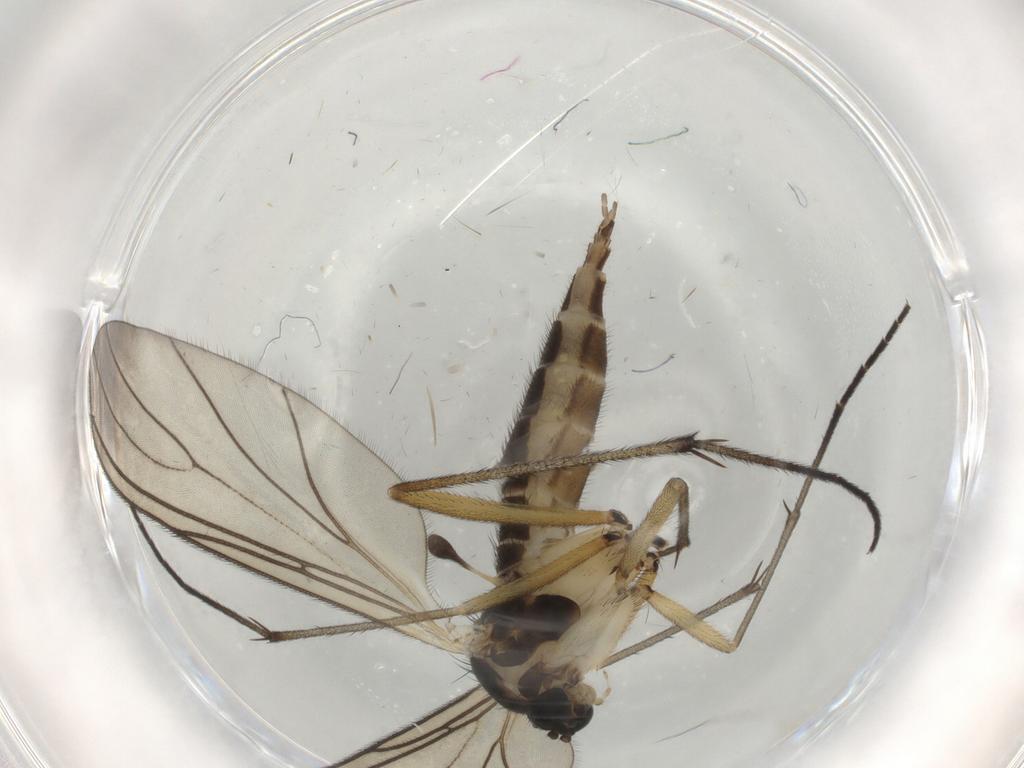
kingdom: Animalia
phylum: Arthropoda
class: Insecta
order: Diptera
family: Sciaridae
